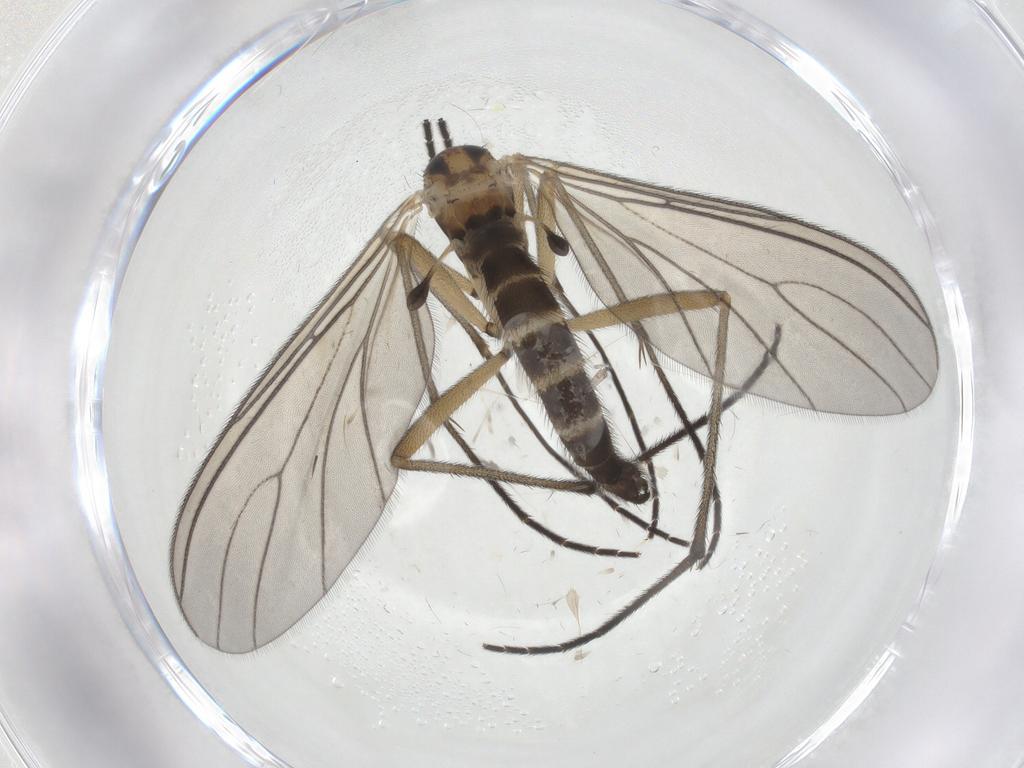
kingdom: Animalia
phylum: Arthropoda
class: Insecta
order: Diptera
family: Sciaridae
